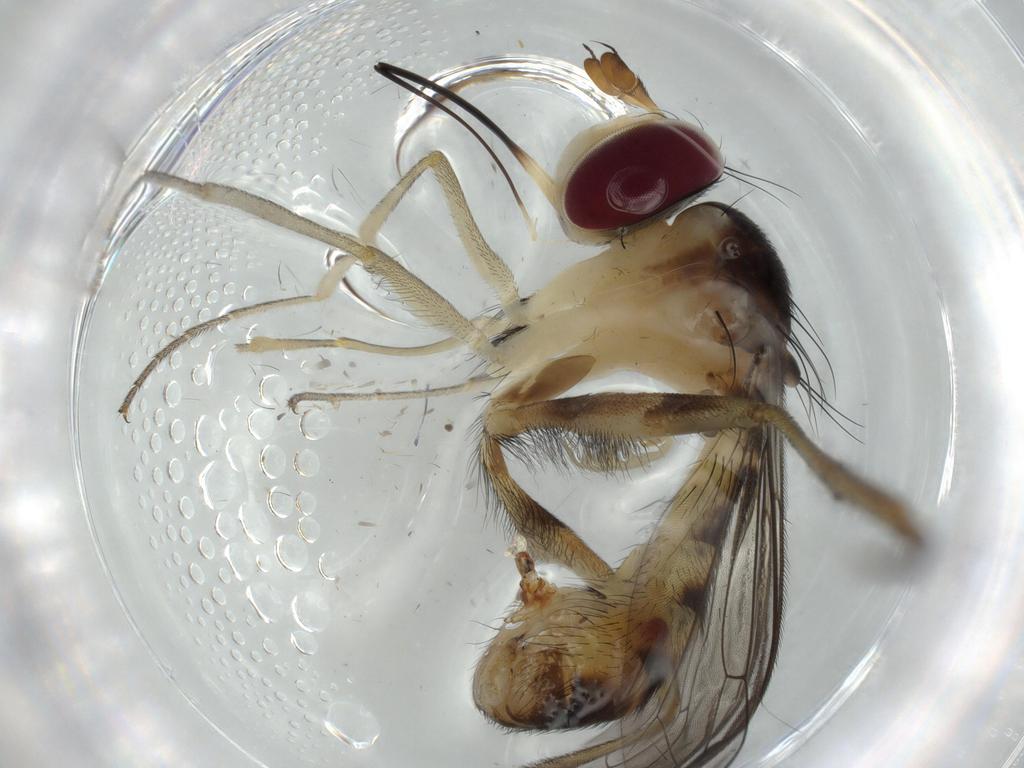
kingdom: Animalia
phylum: Arthropoda
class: Insecta
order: Diptera
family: Conopidae
